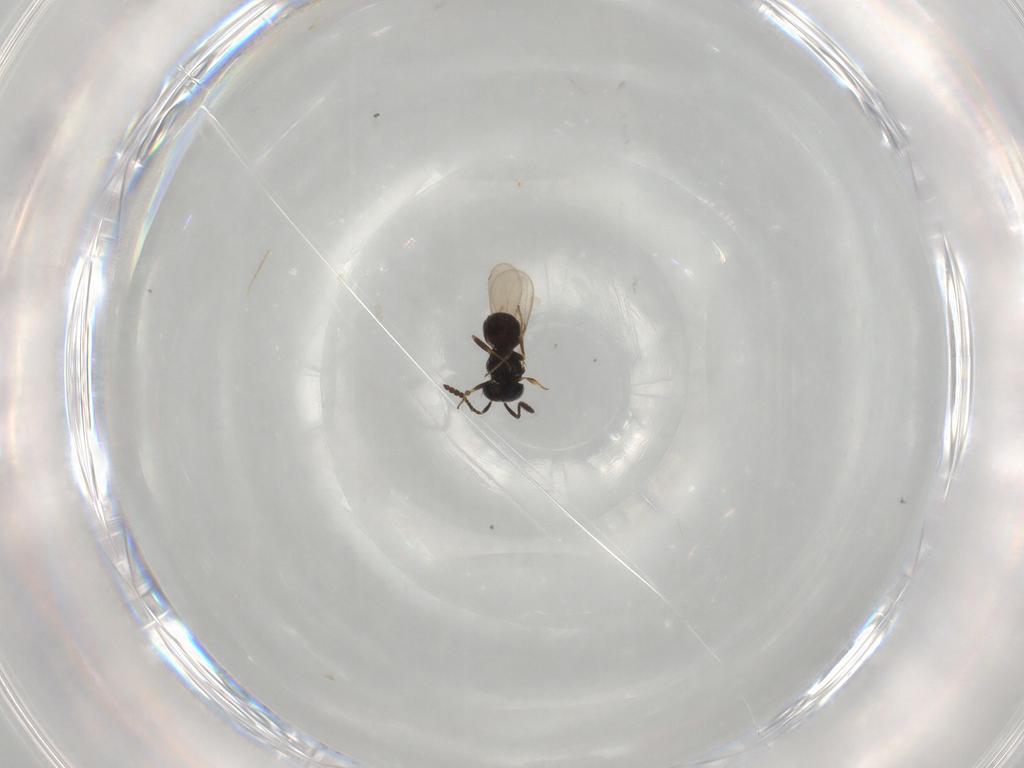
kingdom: Animalia
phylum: Arthropoda
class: Insecta
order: Hymenoptera
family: Scelionidae
